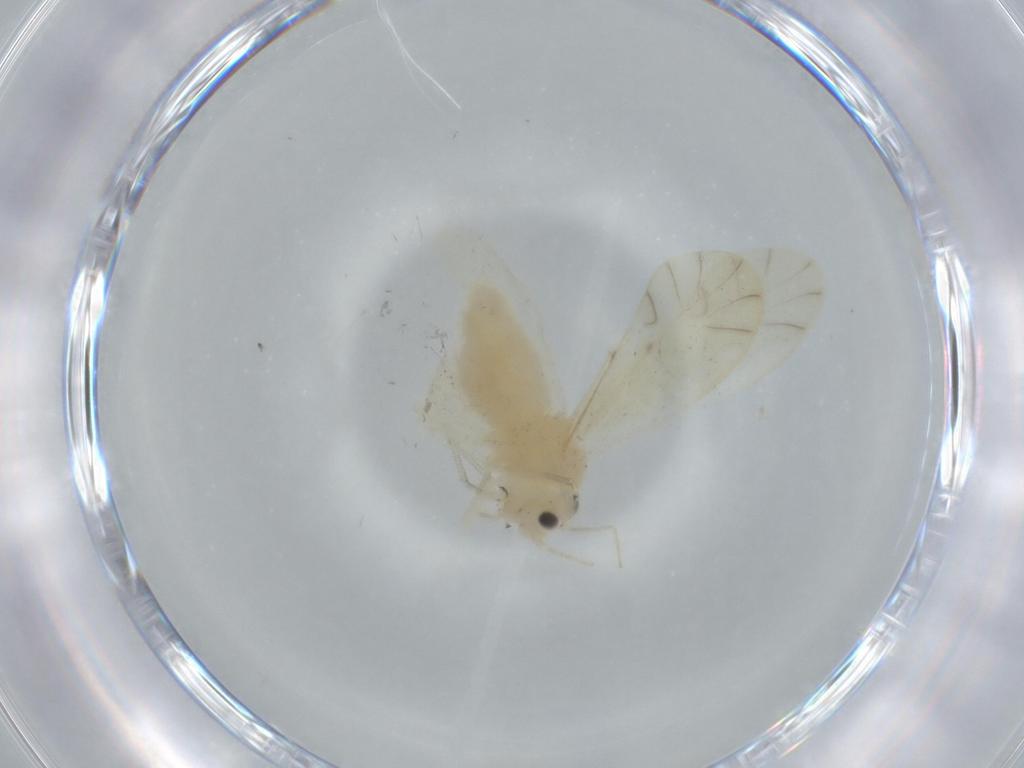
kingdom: Animalia
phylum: Arthropoda
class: Insecta
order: Psocodea
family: Caeciliusidae
